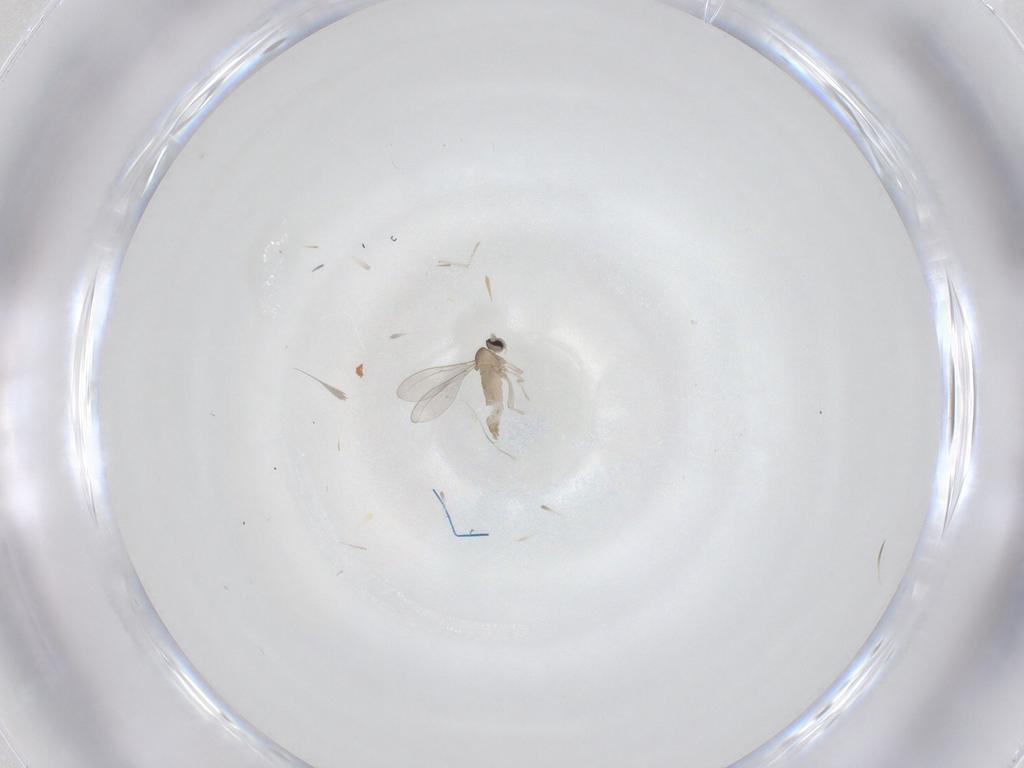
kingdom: Animalia
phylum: Arthropoda
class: Insecta
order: Diptera
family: Cecidomyiidae
